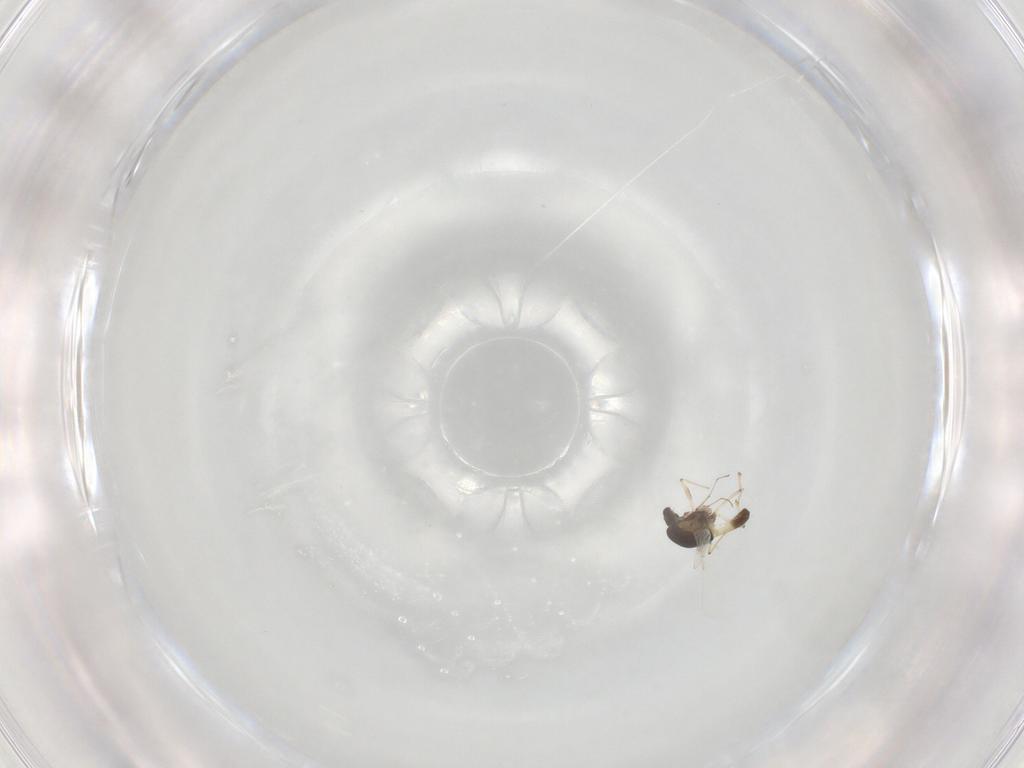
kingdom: Animalia
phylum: Arthropoda
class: Insecta
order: Diptera
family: Chironomidae
